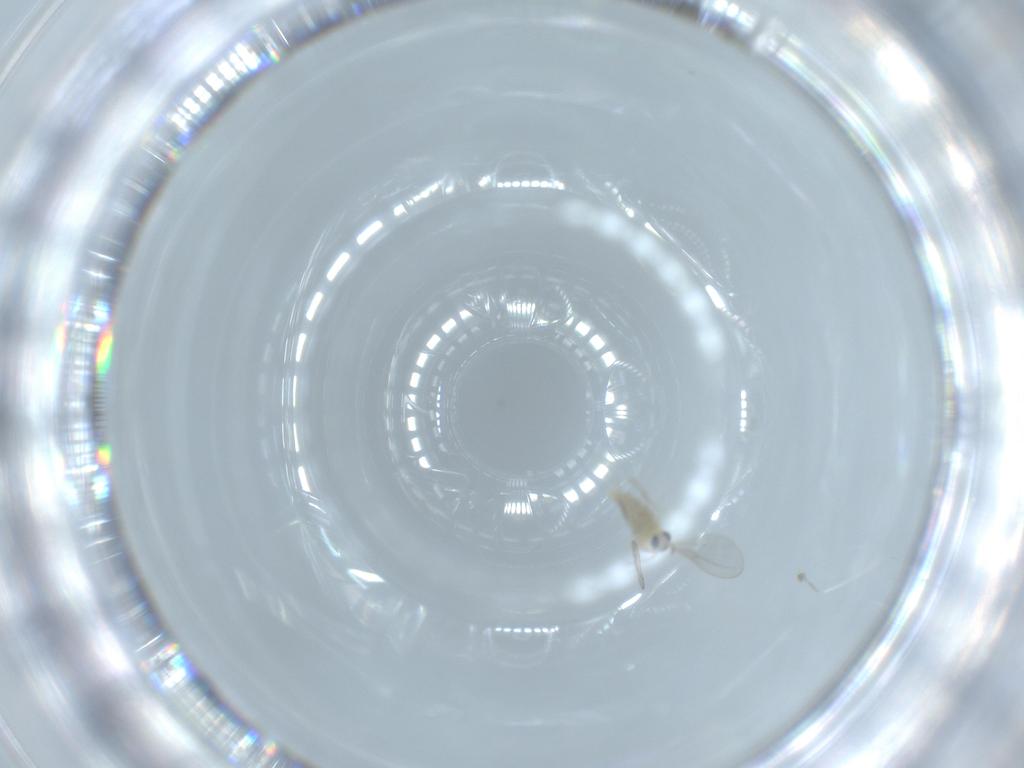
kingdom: Animalia
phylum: Arthropoda
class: Insecta
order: Diptera
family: Cecidomyiidae
